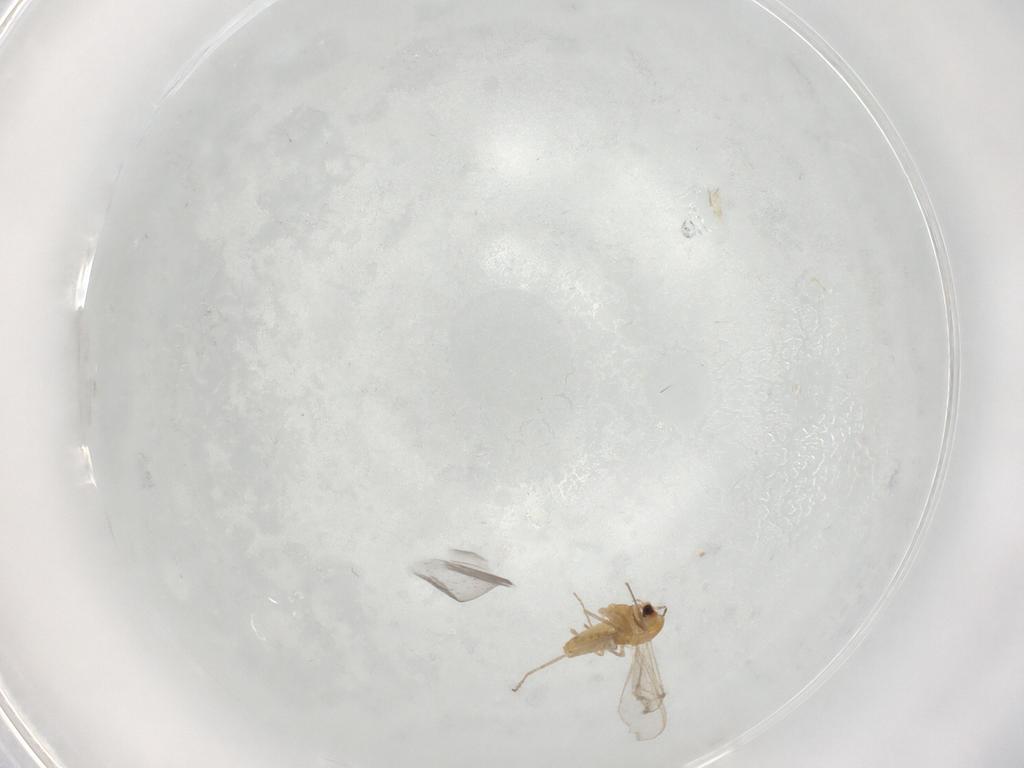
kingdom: Animalia
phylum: Arthropoda
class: Insecta
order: Diptera
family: Chironomidae
